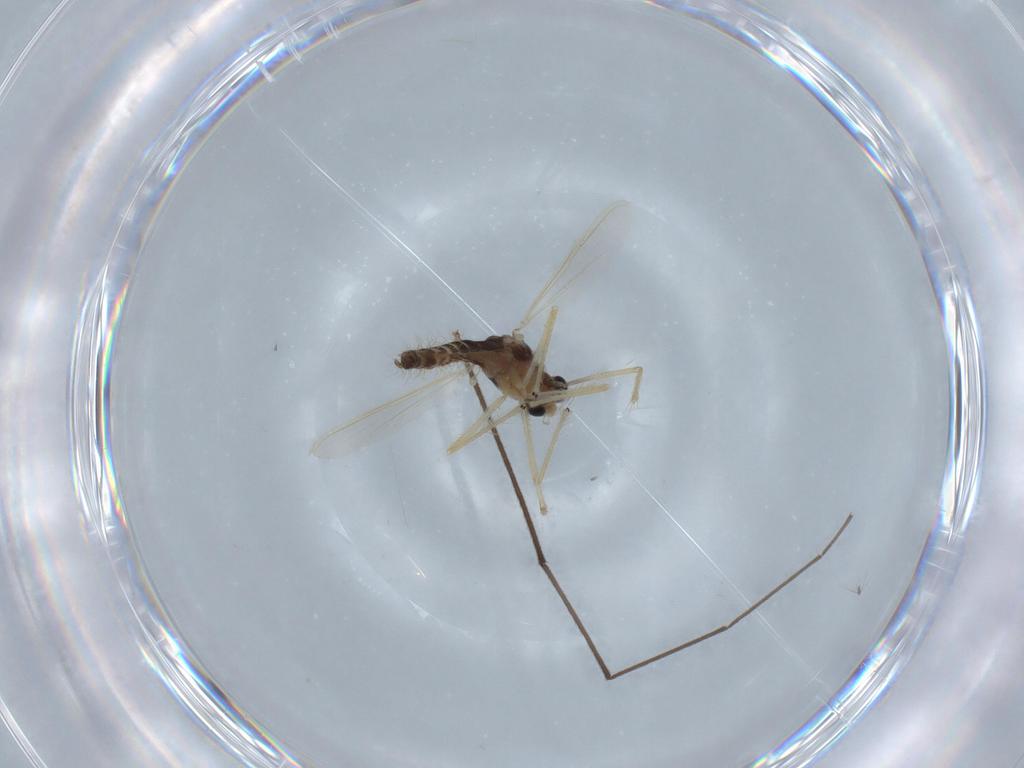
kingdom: Animalia
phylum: Arthropoda
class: Insecta
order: Diptera
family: Chironomidae
